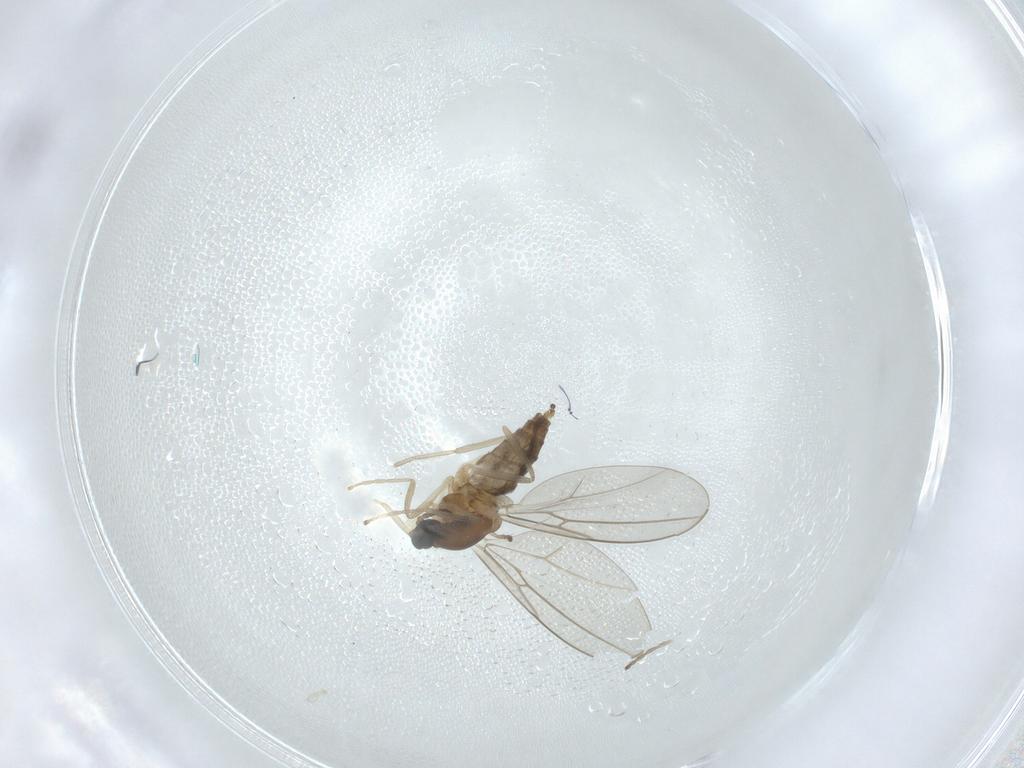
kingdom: Animalia
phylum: Arthropoda
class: Insecta
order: Diptera
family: Cecidomyiidae
